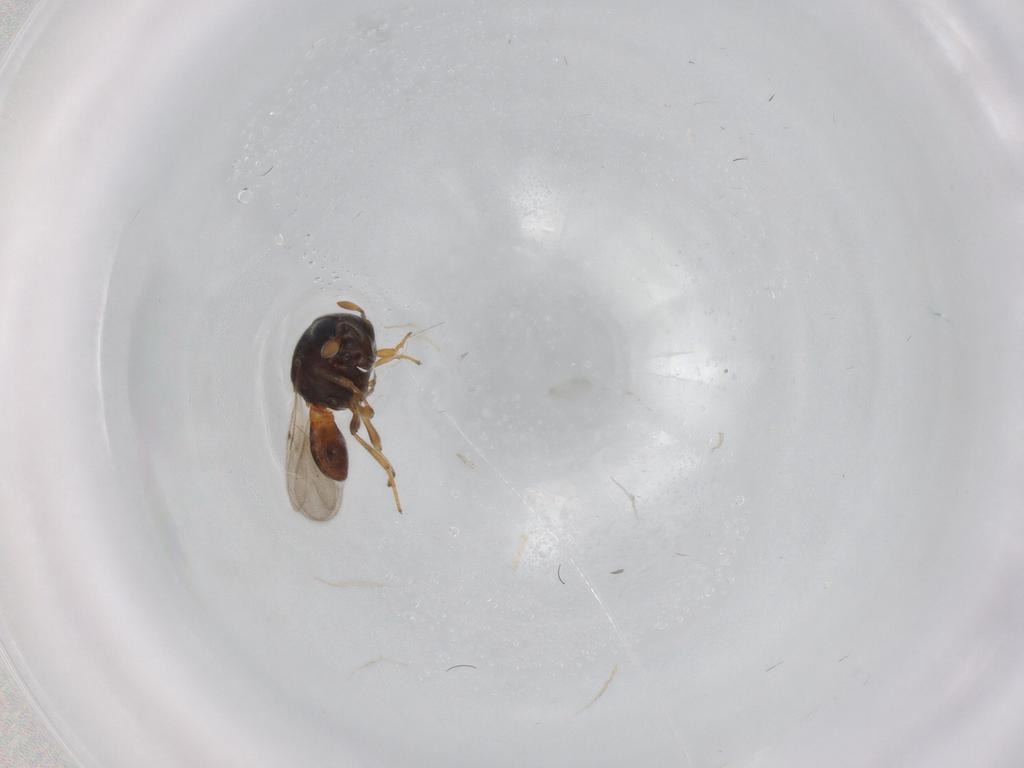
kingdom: Animalia
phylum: Arthropoda
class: Insecta
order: Hymenoptera
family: Scelionidae
